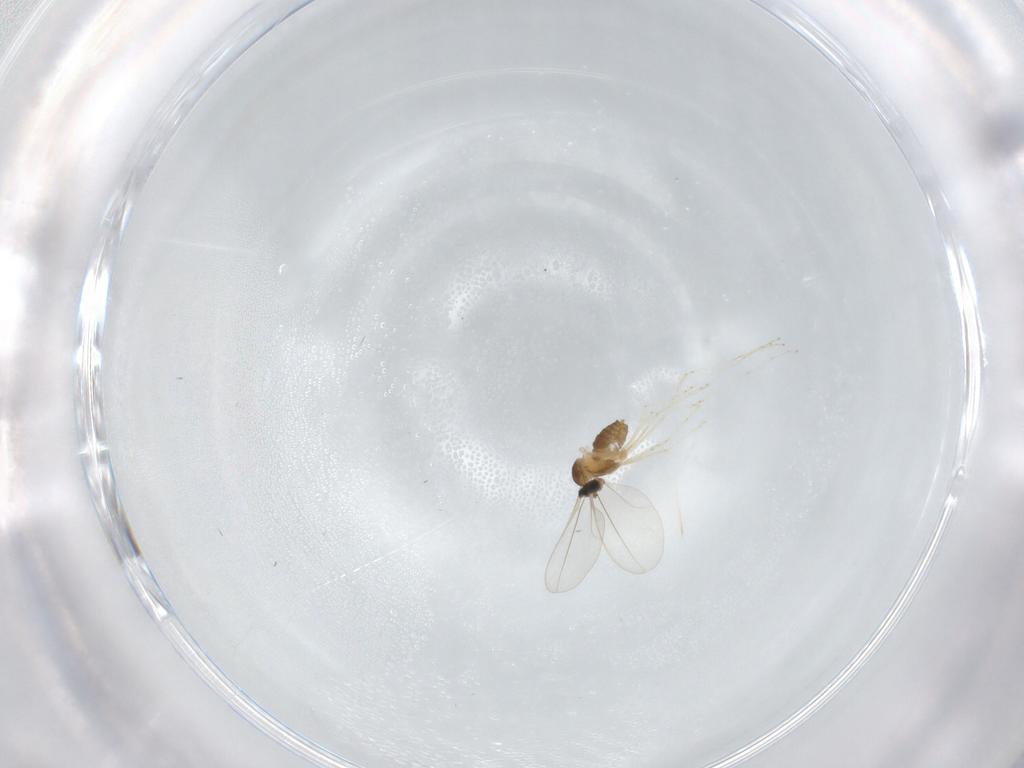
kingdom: Animalia
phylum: Arthropoda
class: Insecta
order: Diptera
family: Cecidomyiidae
